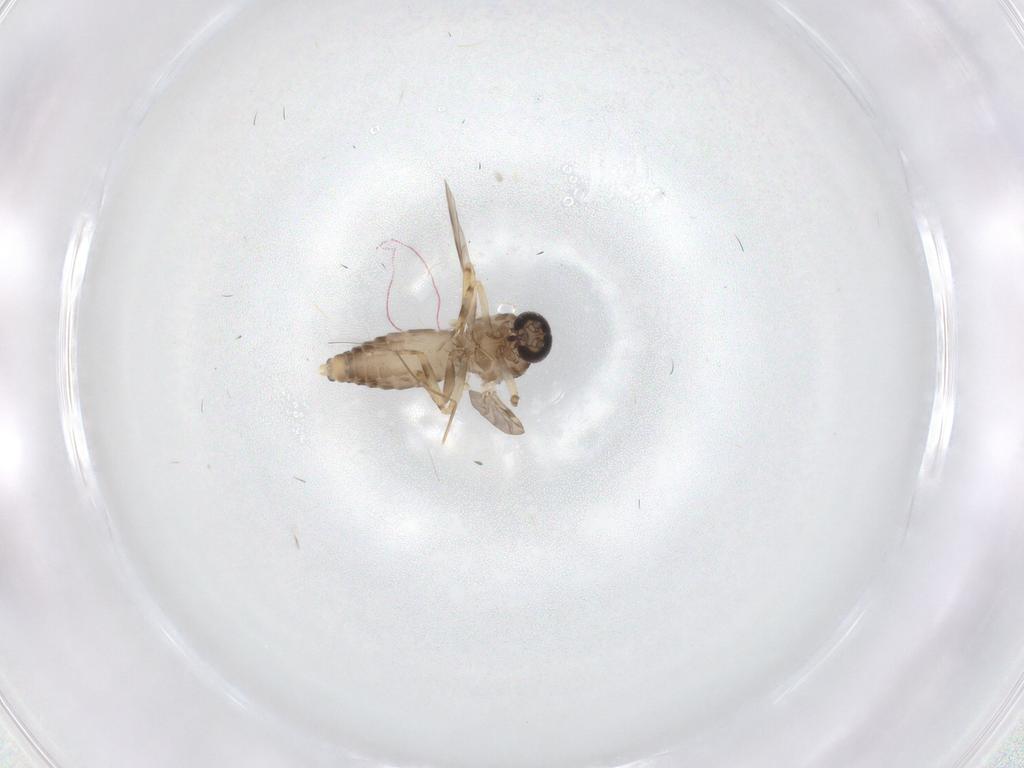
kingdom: Animalia
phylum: Arthropoda
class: Insecta
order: Diptera
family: Ceratopogonidae
